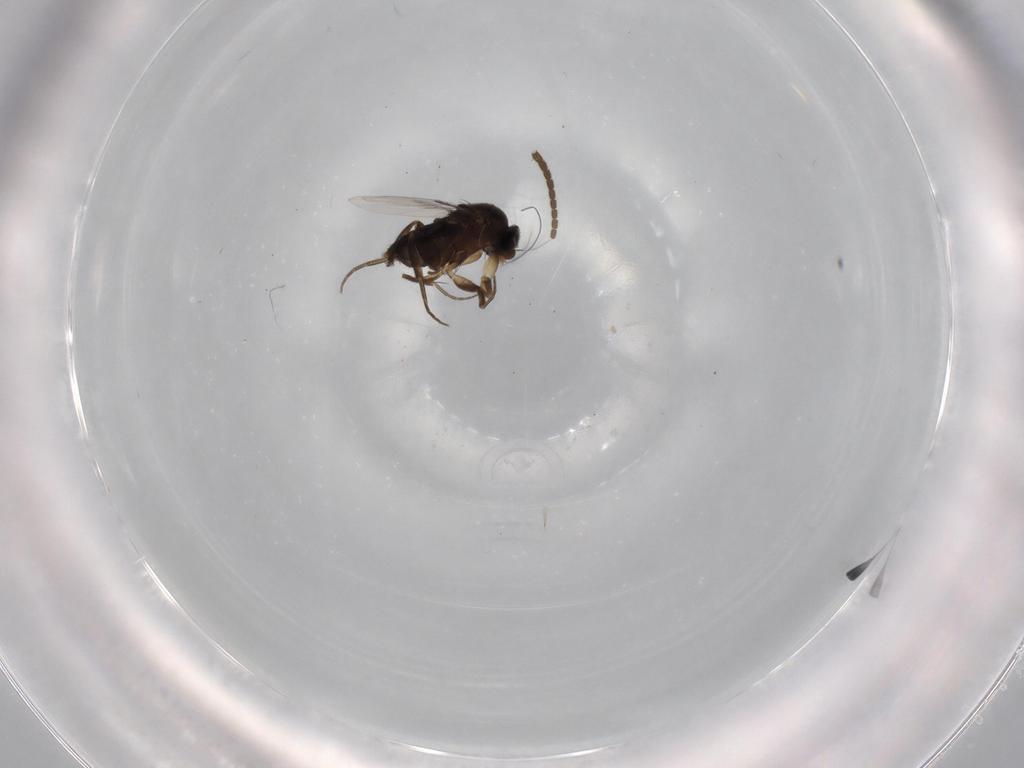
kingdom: Animalia
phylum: Arthropoda
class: Insecta
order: Diptera
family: Phoridae
